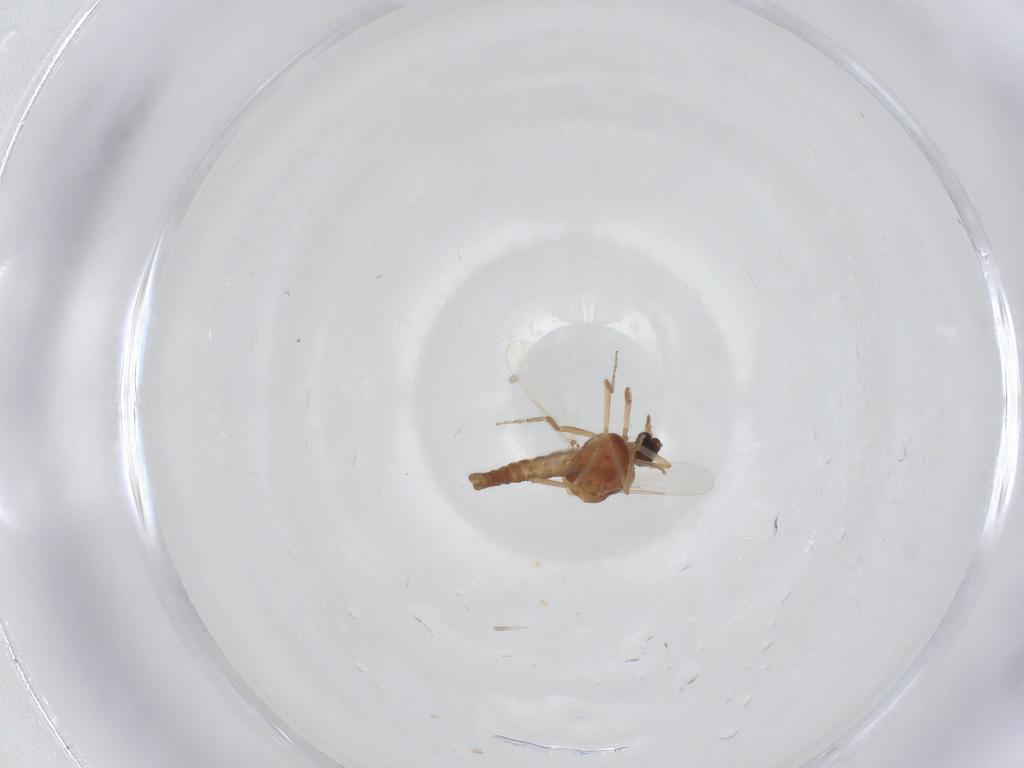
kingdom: Animalia
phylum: Arthropoda
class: Insecta
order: Diptera
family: Ceratopogonidae
